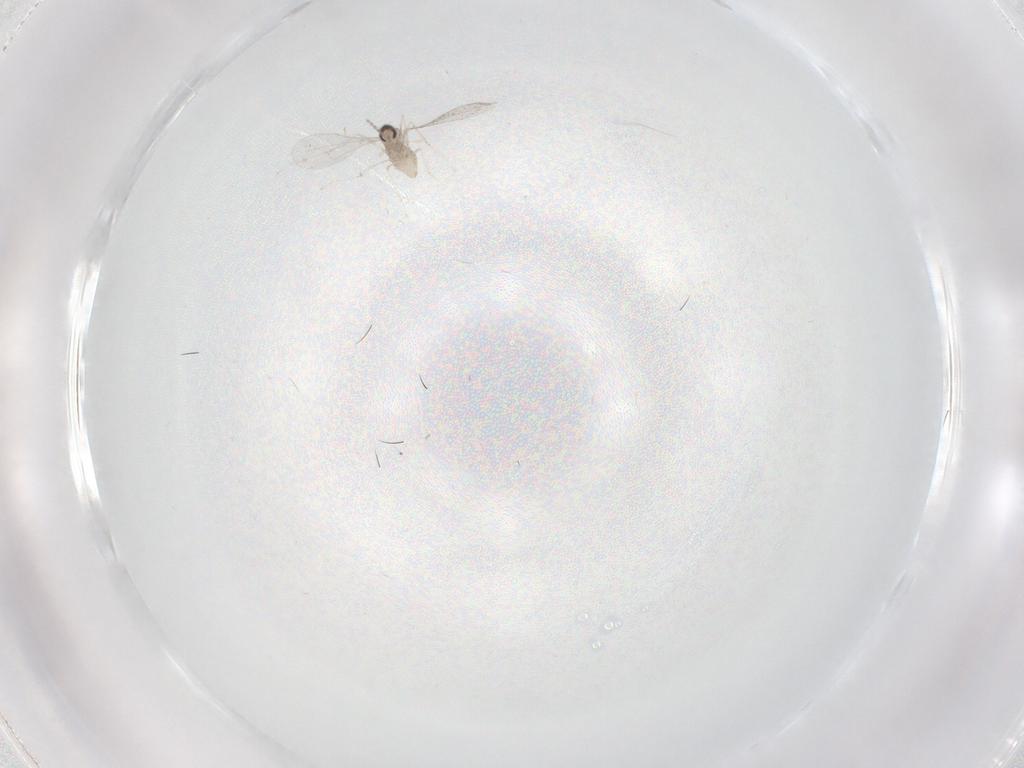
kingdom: Animalia
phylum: Arthropoda
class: Insecta
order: Diptera
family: Cecidomyiidae
